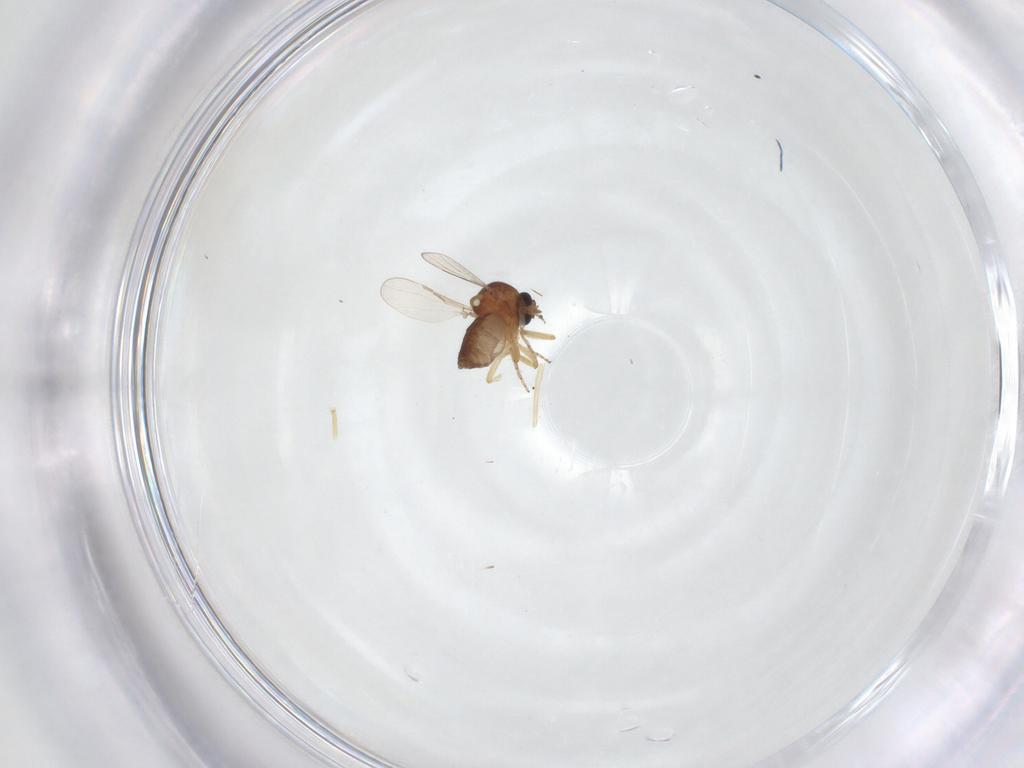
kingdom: Animalia
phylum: Arthropoda
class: Insecta
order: Diptera
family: Ceratopogonidae
